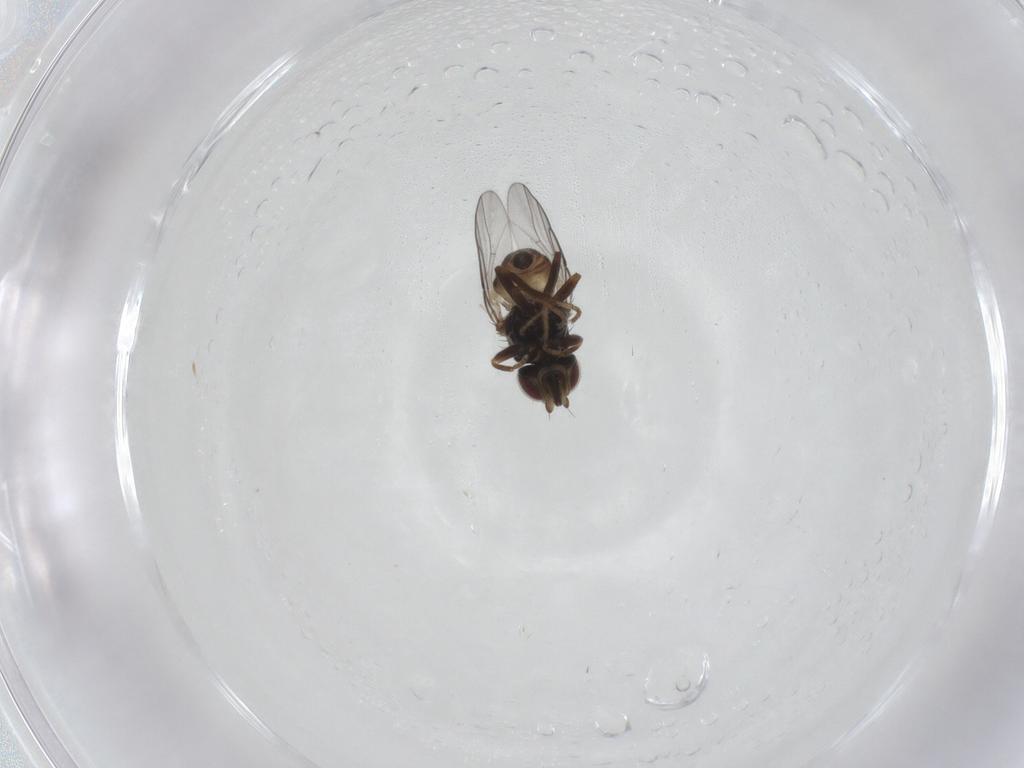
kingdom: Animalia
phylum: Arthropoda
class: Insecta
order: Diptera
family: Chloropidae
